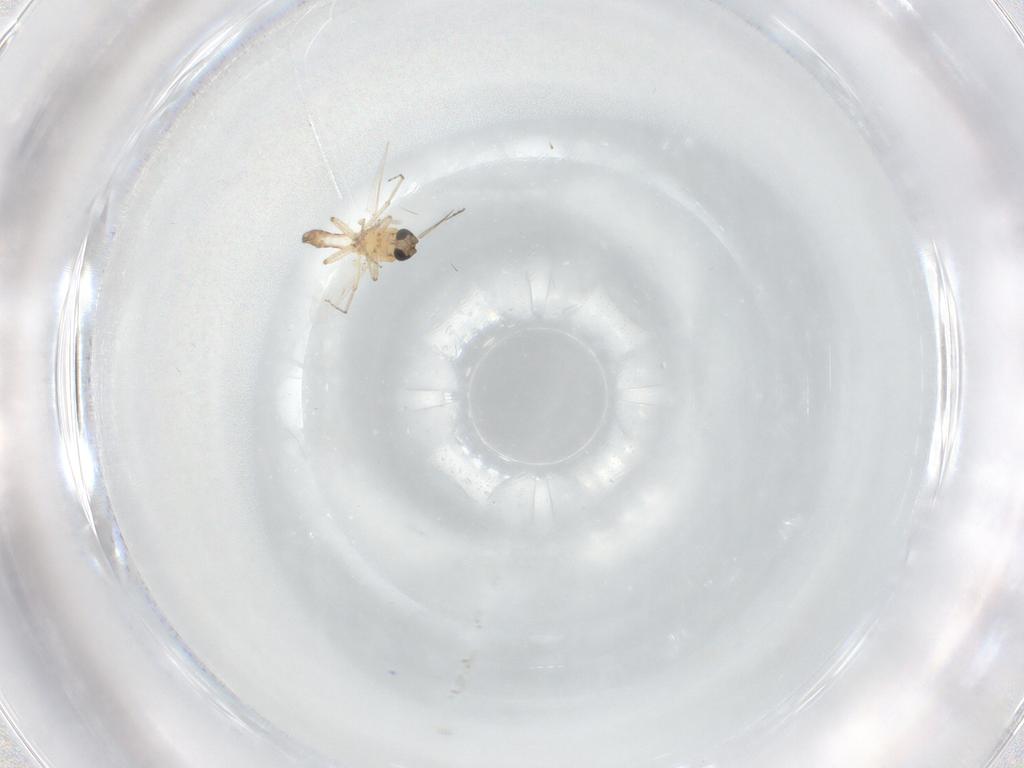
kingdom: Animalia
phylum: Arthropoda
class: Insecta
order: Diptera
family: Ceratopogonidae
